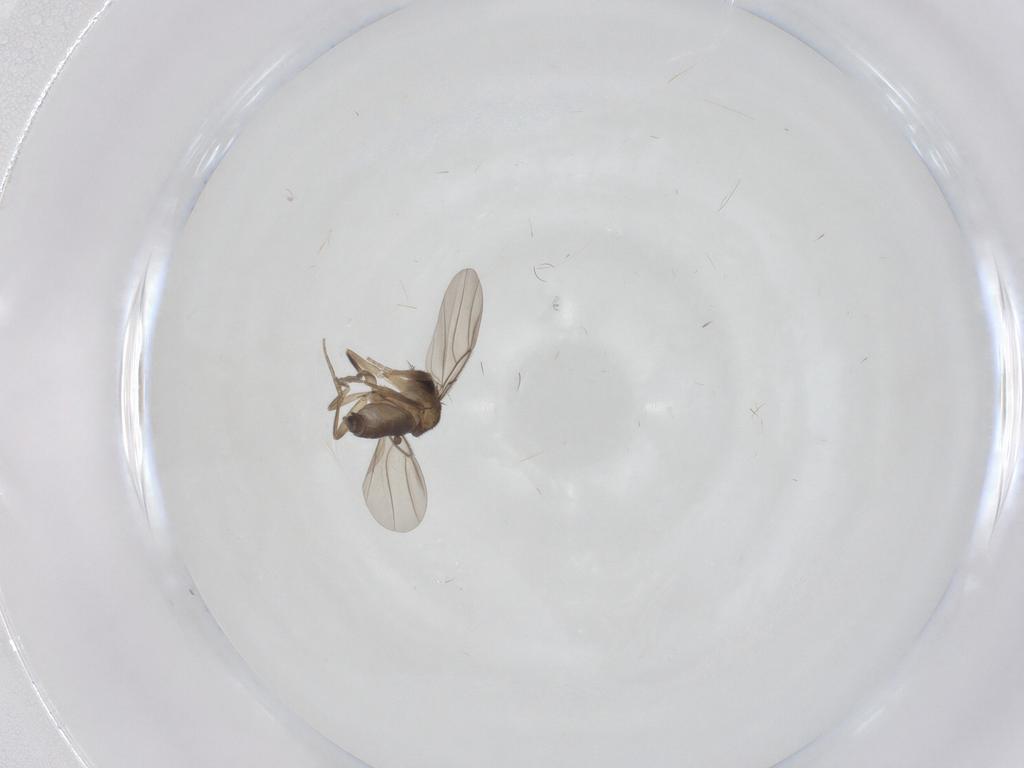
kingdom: Animalia
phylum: Arthropoda
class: Insecta
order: Diptera
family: Phoridae
